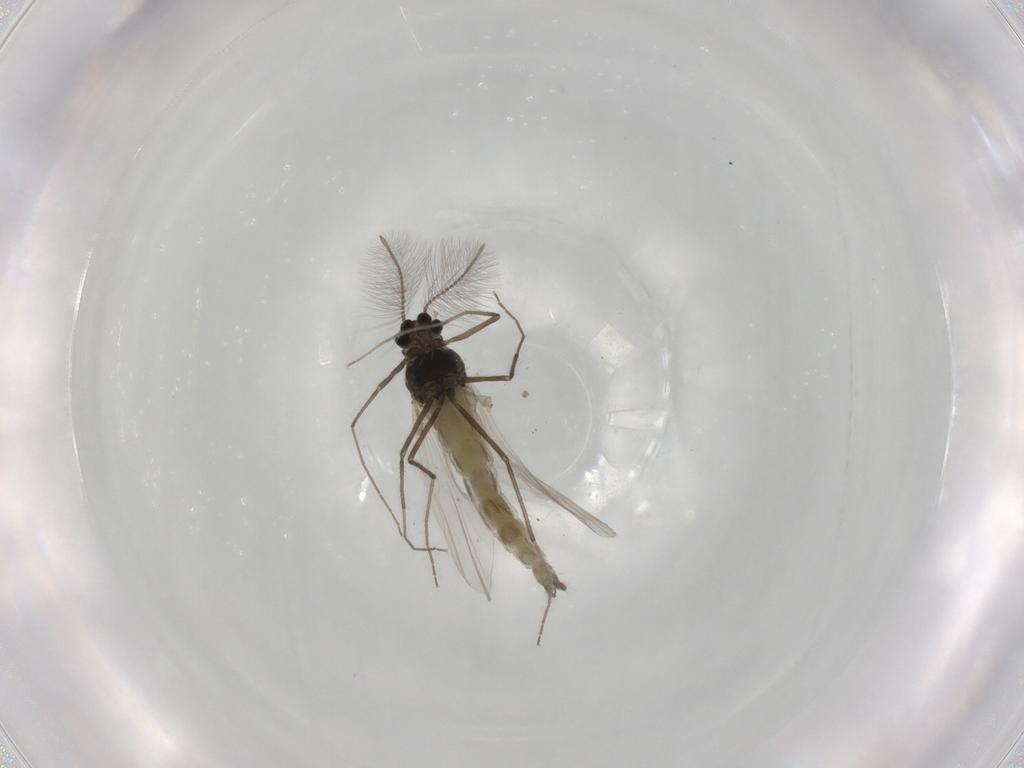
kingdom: Animalia
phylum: Arthropoda
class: Insecta
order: Diptera
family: Chironomidae
